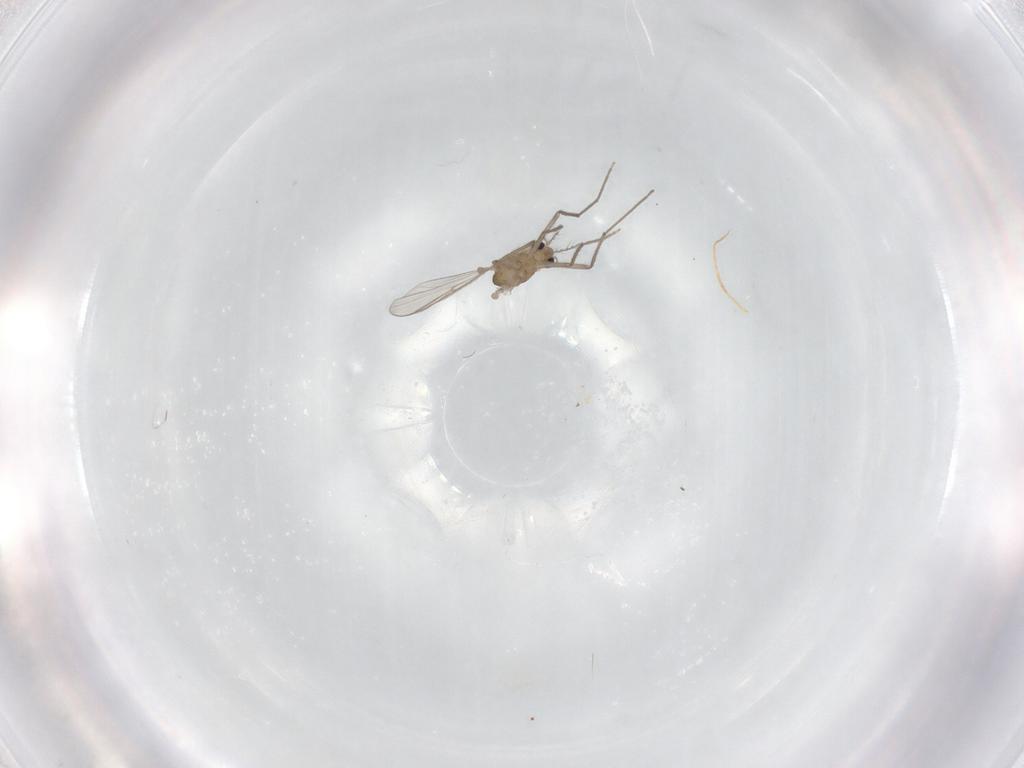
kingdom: Animalia
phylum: Arthropoda
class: Insecta
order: Diptera
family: Chironomidae
